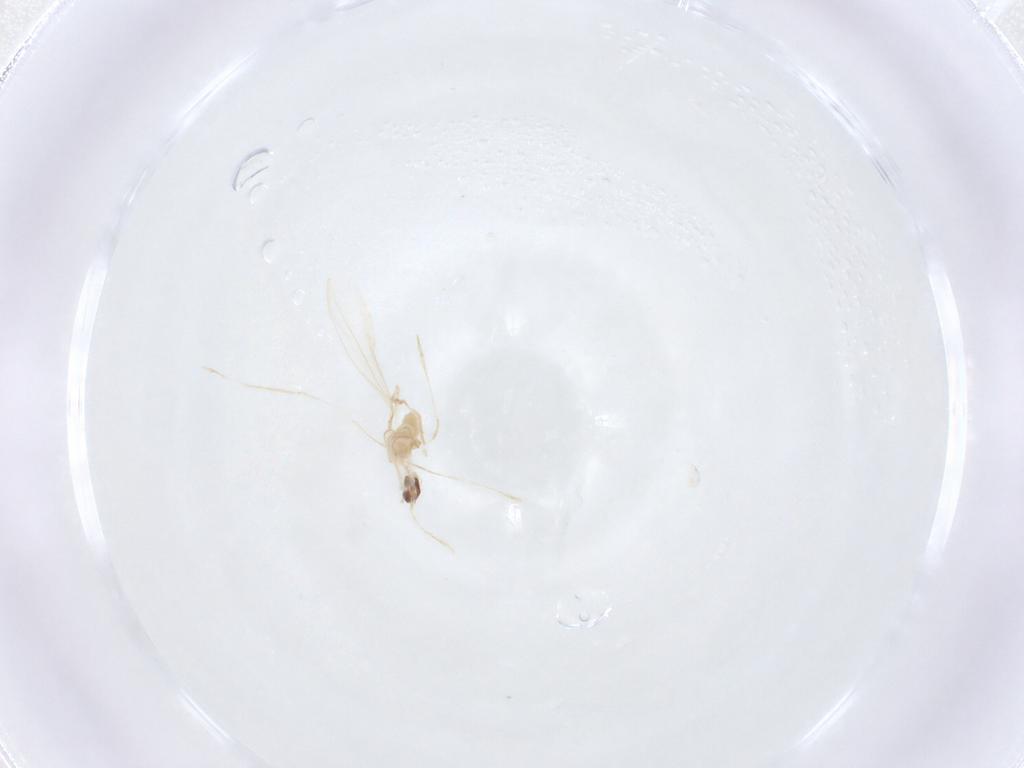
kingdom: Animalia
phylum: Arthropoda
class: Insecta
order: Diptera
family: Cecidomyiidae
